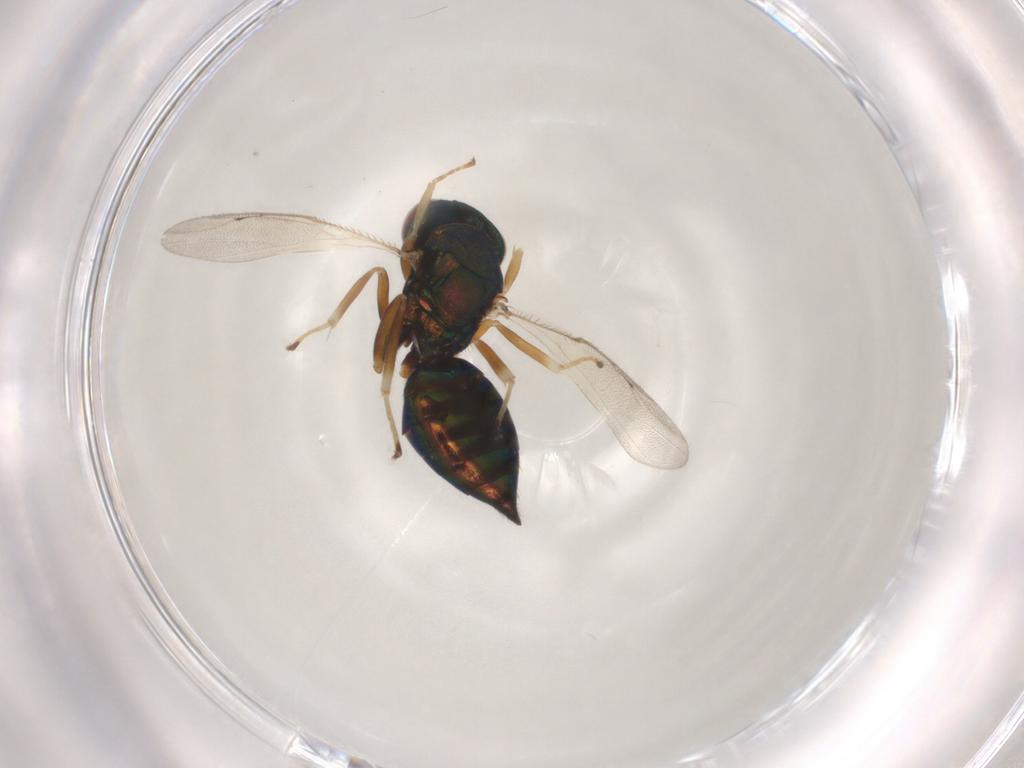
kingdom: Animalia
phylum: Arthropoda
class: Insecta
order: Hymenoptera
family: Pteromalidae
